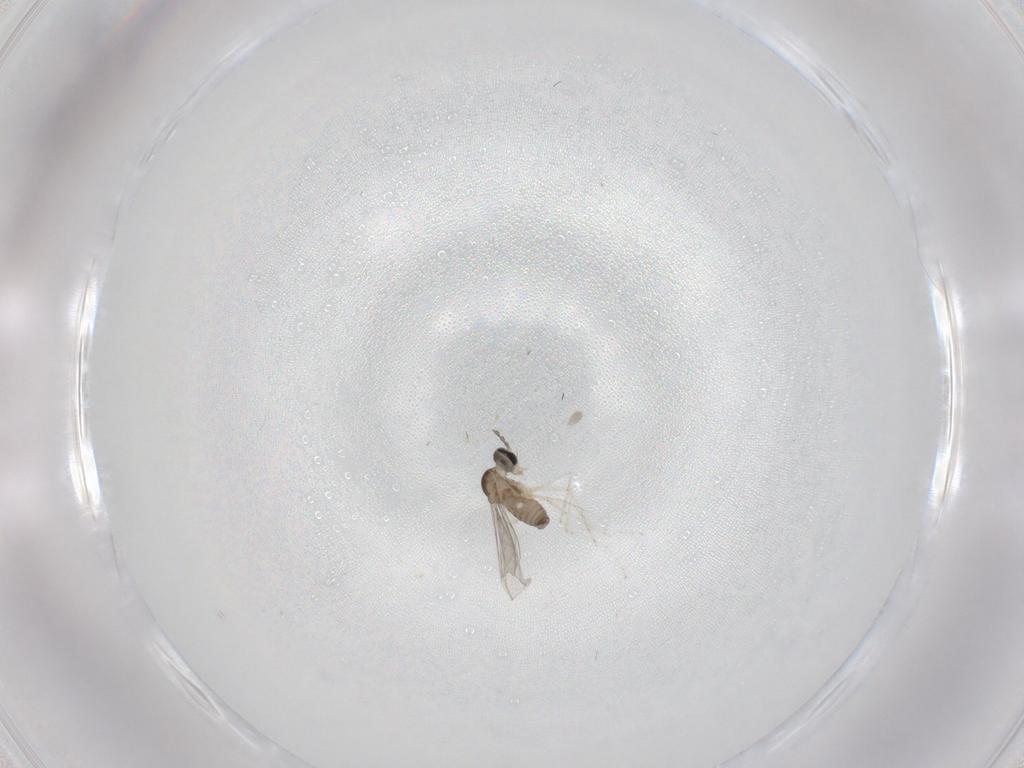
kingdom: Animalia
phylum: Arthropoda
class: Insecta
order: Diptera
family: Cecidomyiidae
